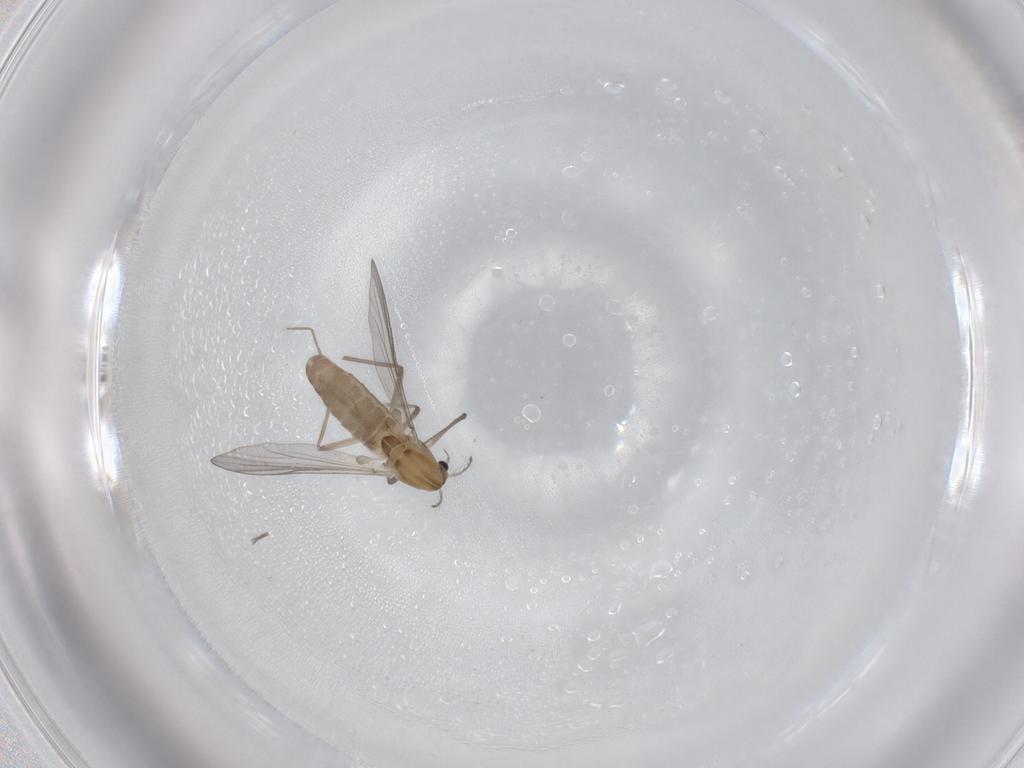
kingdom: Animalia
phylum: Arthropoda
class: Insecta
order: Diptera
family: Chironomidae
